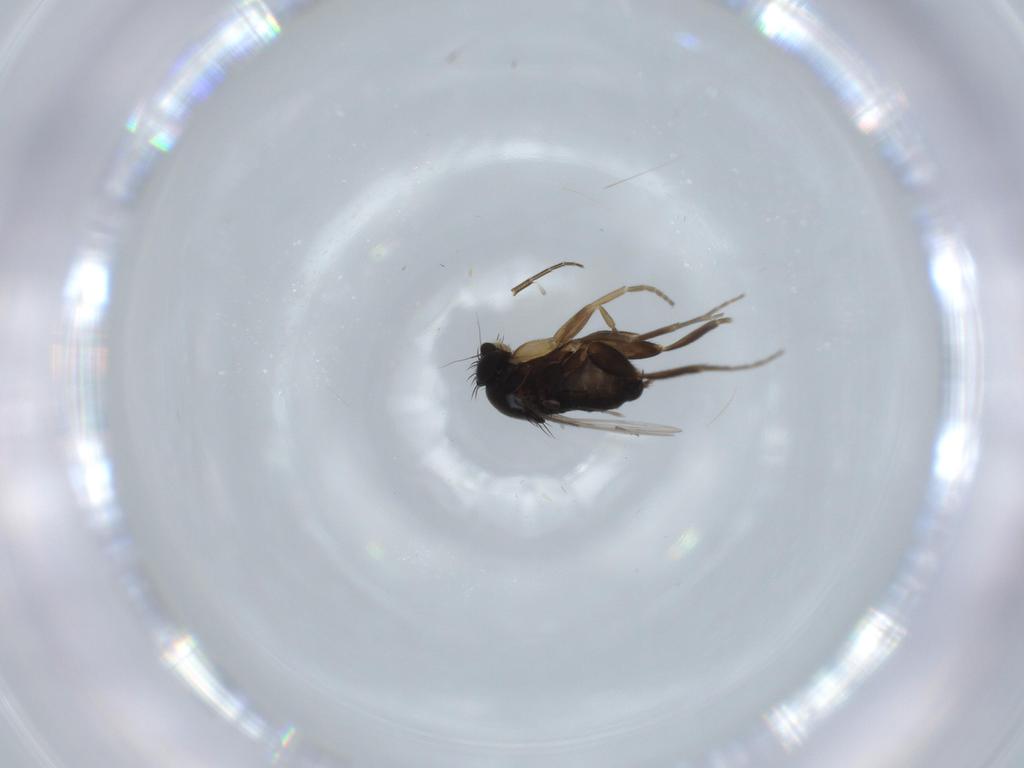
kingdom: Animalia
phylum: Arthropoda
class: Insecta
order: Diptera
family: Phoridae
